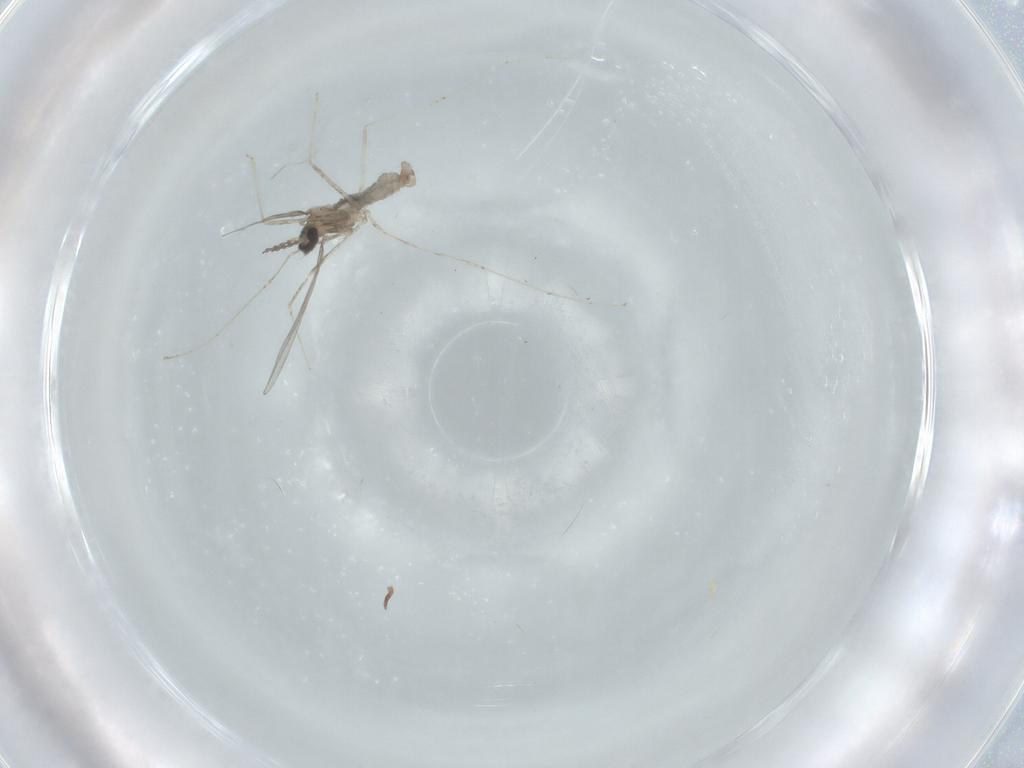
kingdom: Animalia
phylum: Arthropoda
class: Insecta
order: Diptera
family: Cecidomyiidae
